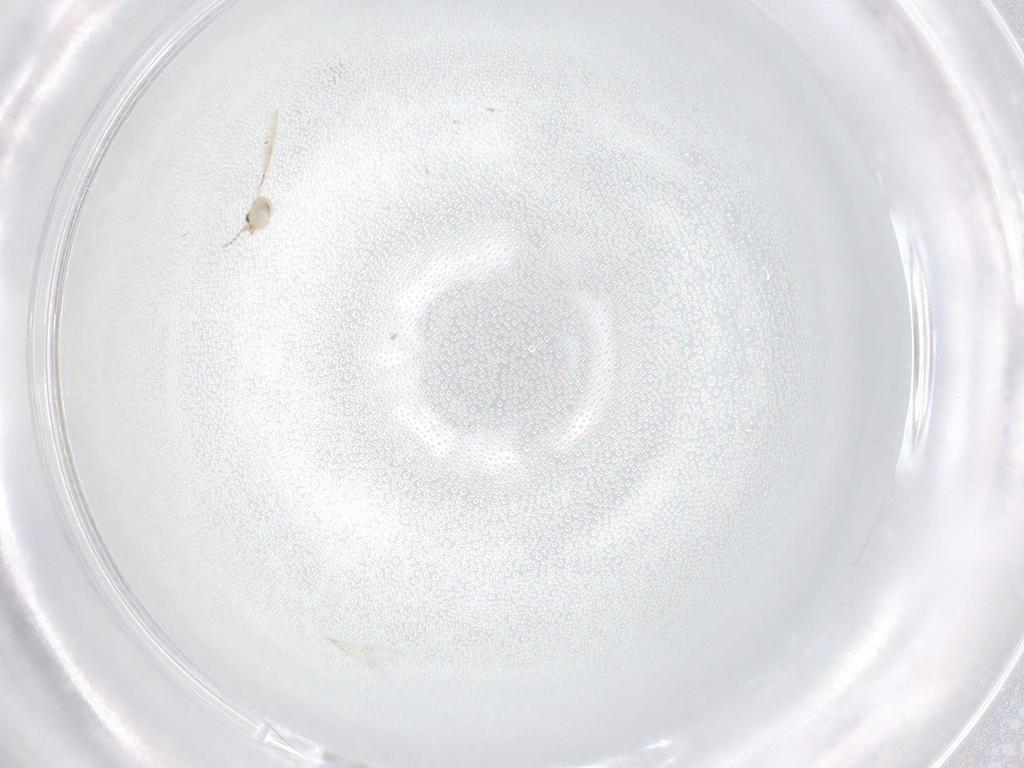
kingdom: Animalia
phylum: Arthropoda
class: Insecta
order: Diptera
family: Cecidomyiidae
